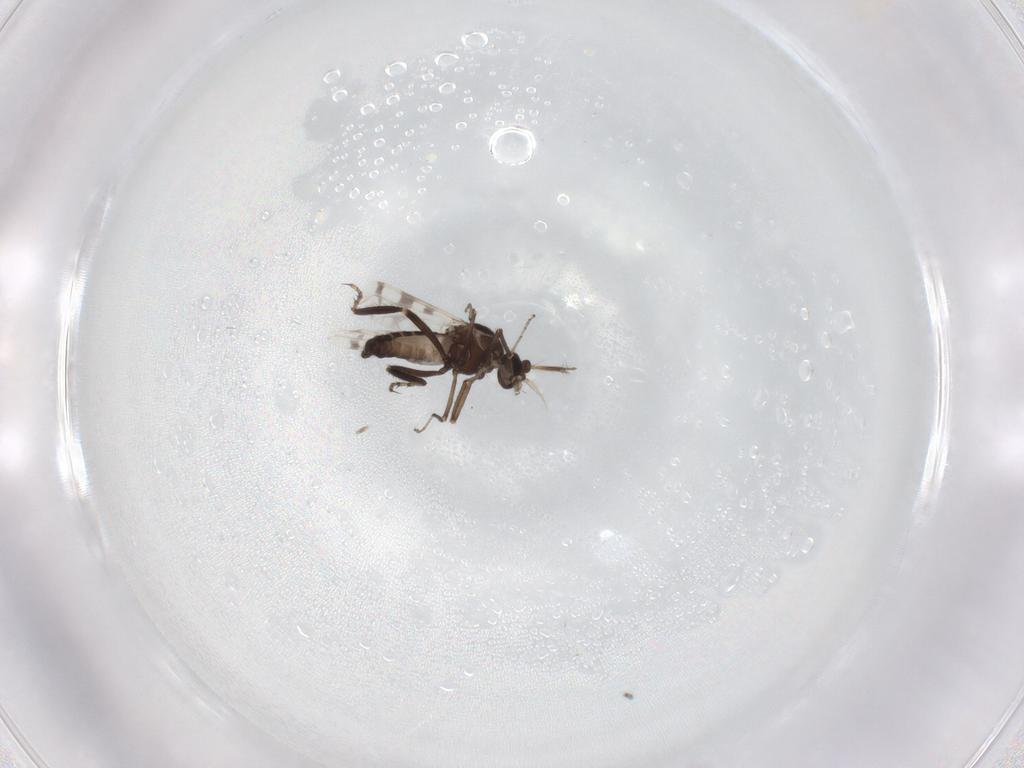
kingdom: Animalia
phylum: Arthropoda
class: Insecta
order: Diptera
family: Ceratopogonidae
